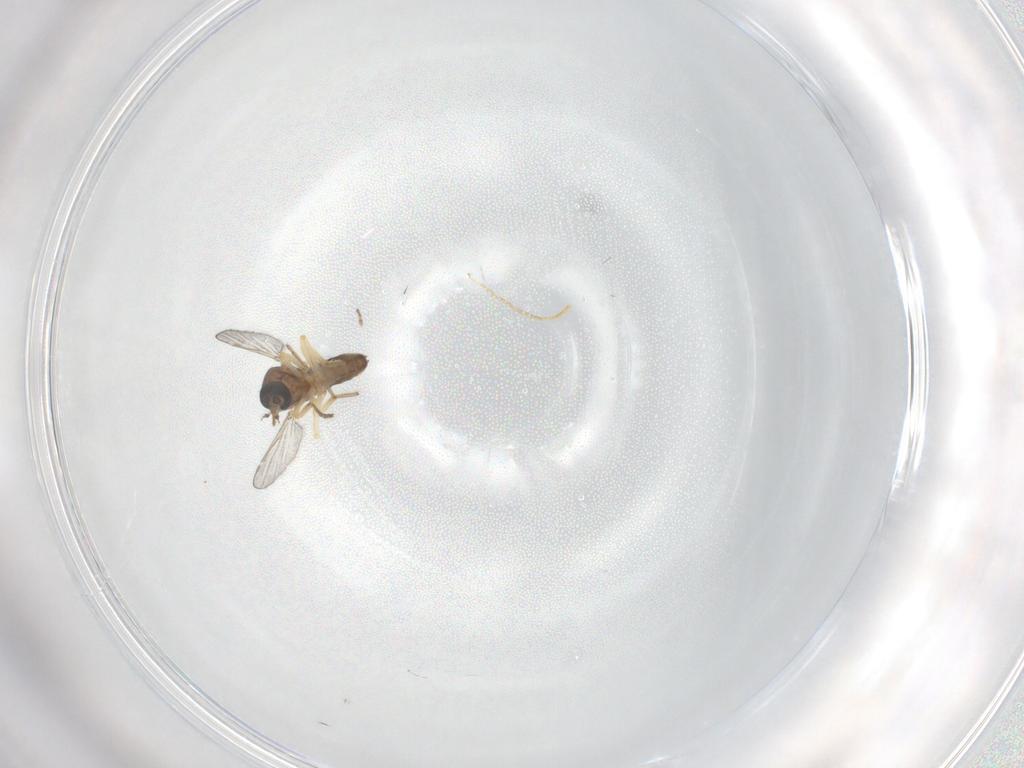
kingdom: Animalia
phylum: Arthropoda
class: Insecta
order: Diptera
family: Ceratopogonidae
